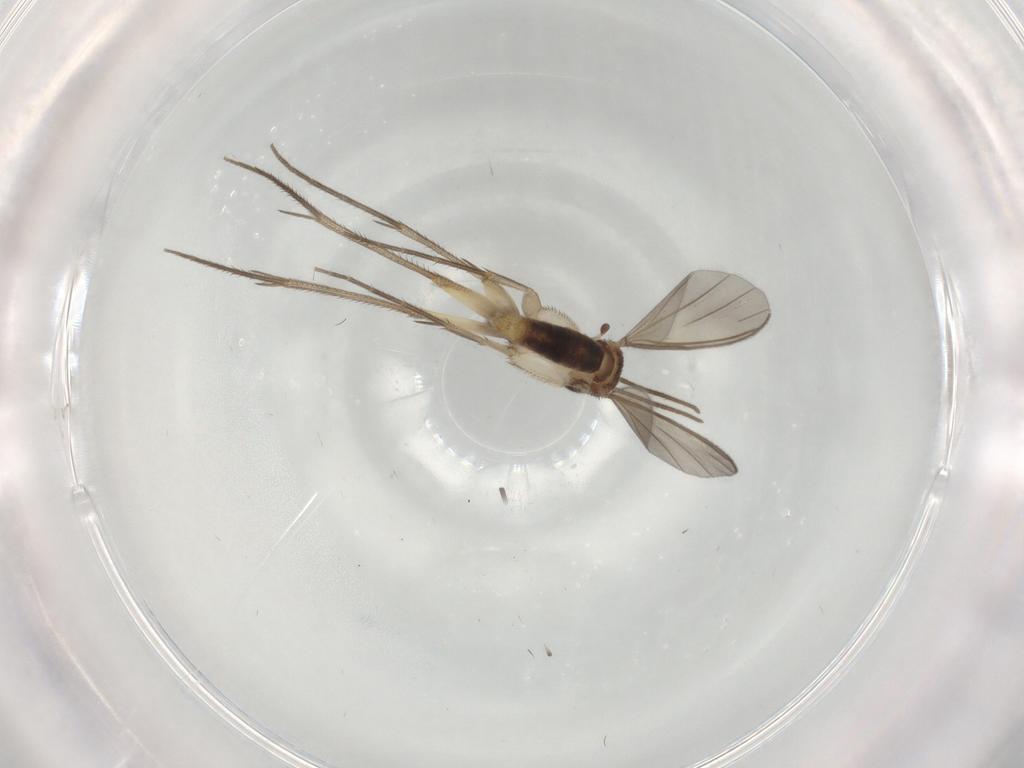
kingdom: Animalia
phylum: Arthropoda
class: Insecta
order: Diptera
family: Mycetophilidae
